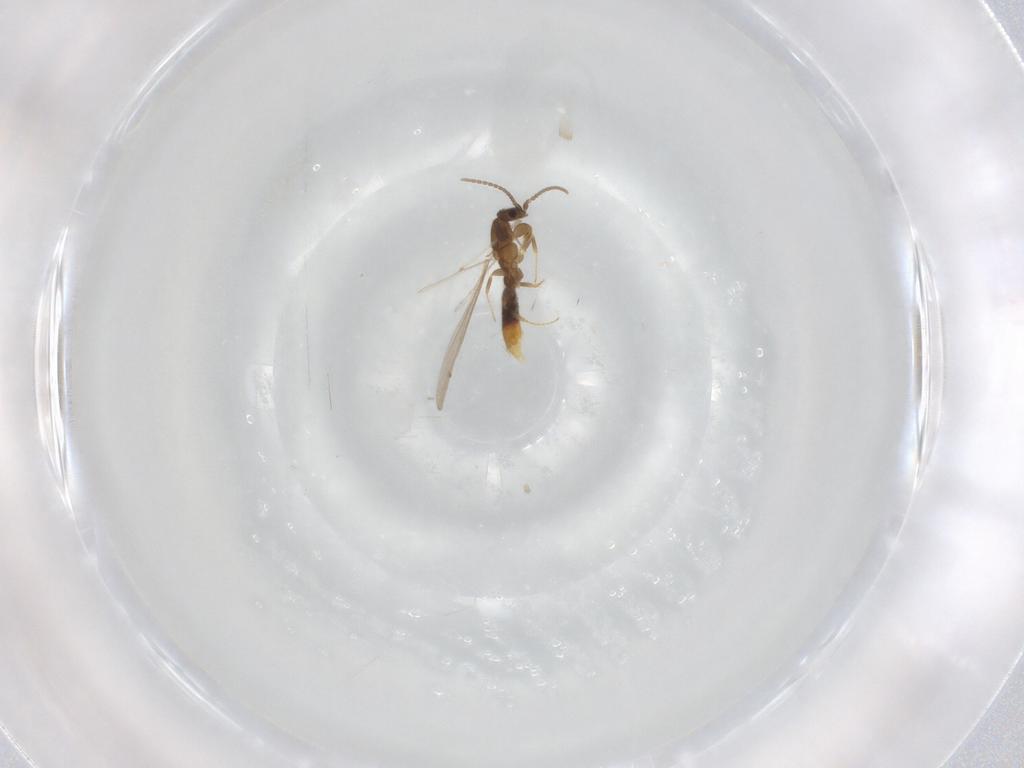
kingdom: Animalia
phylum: Arthropoda
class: Insecta
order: Hymenoptera
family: Formicidae
